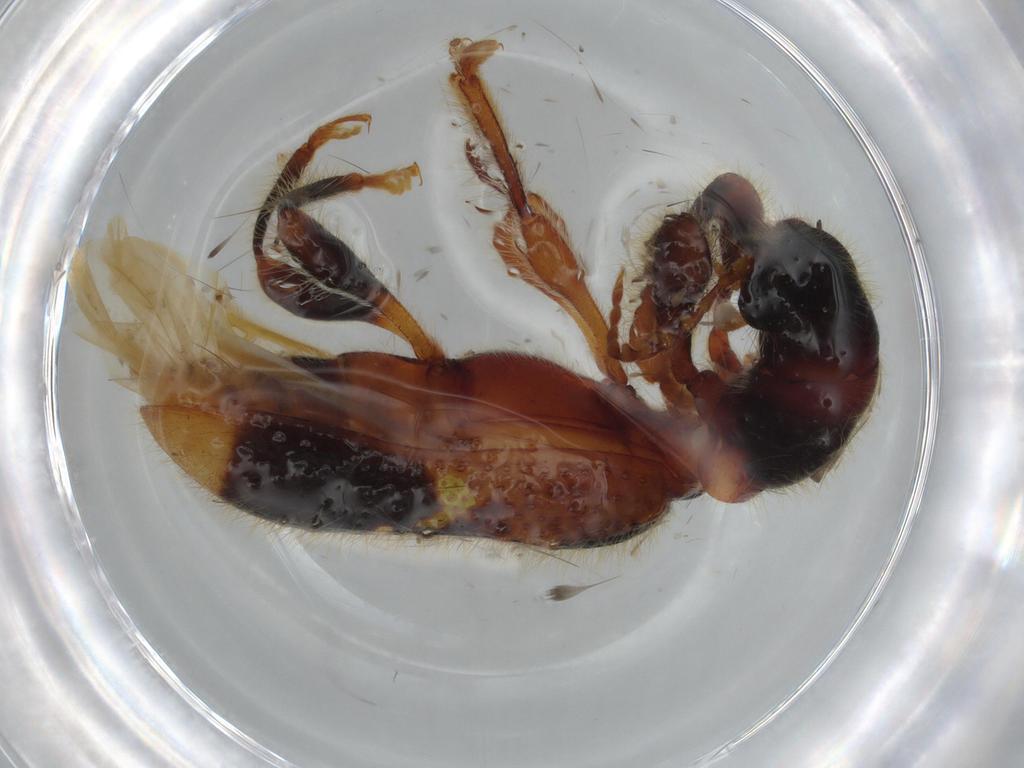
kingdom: Animalia
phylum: Arthropoda
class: Insecta
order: Coleoptera
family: Cleridae
